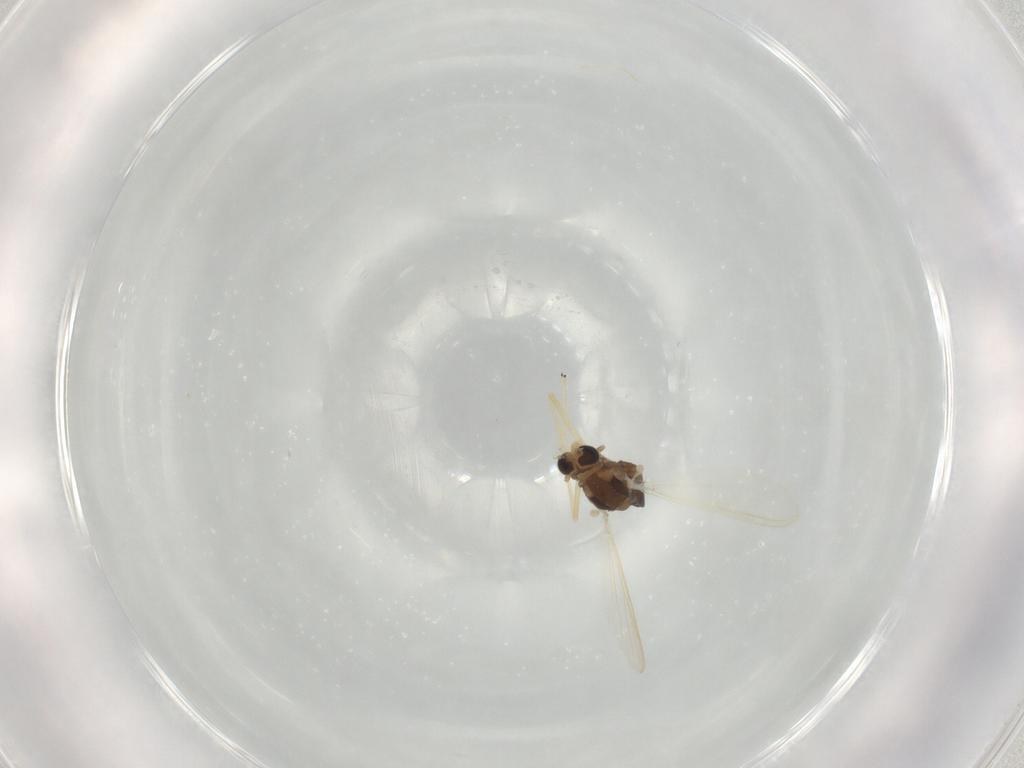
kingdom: Animalia
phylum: Arthropoda
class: Insecta
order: Diptera
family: Chironomidae
